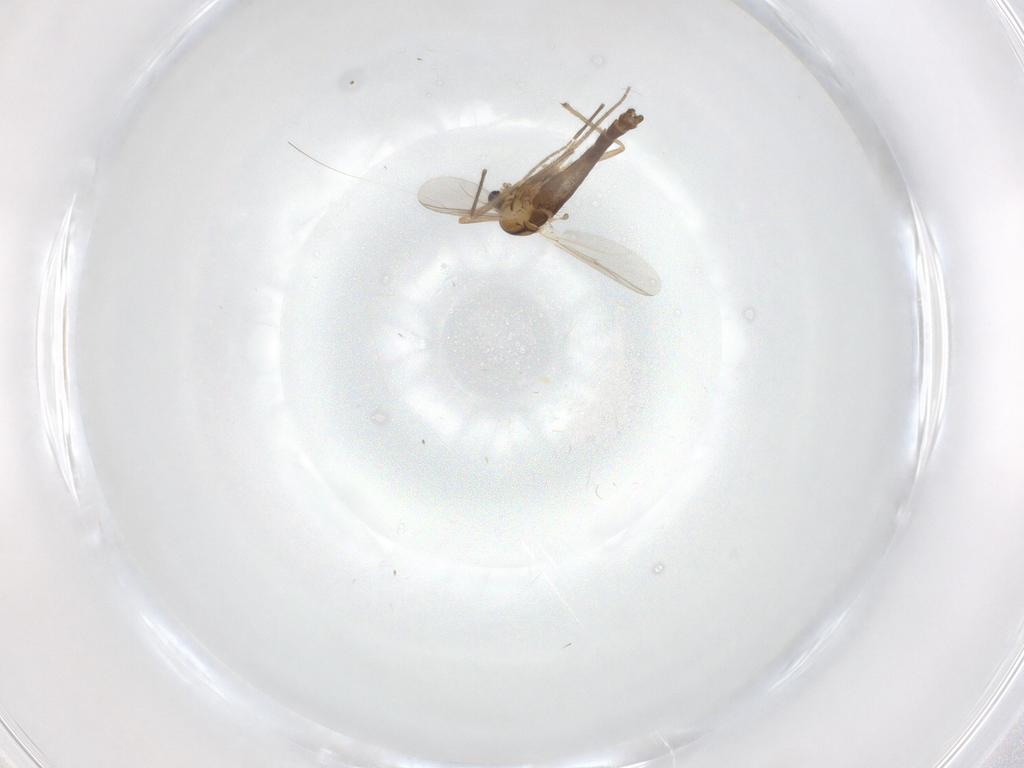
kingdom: Animalia
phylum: Arthropoda
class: Insecta
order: Diptera
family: Chironomidae
